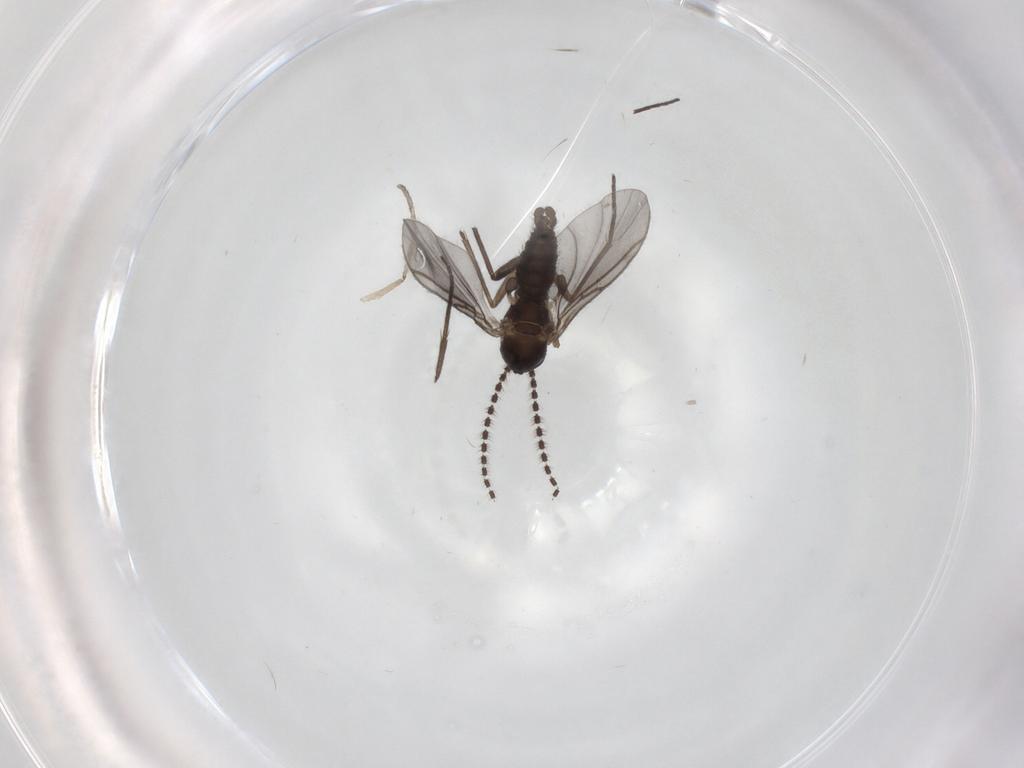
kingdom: Animalia
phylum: Arthropoda
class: Insecta
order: Diptera
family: Sciaridae
